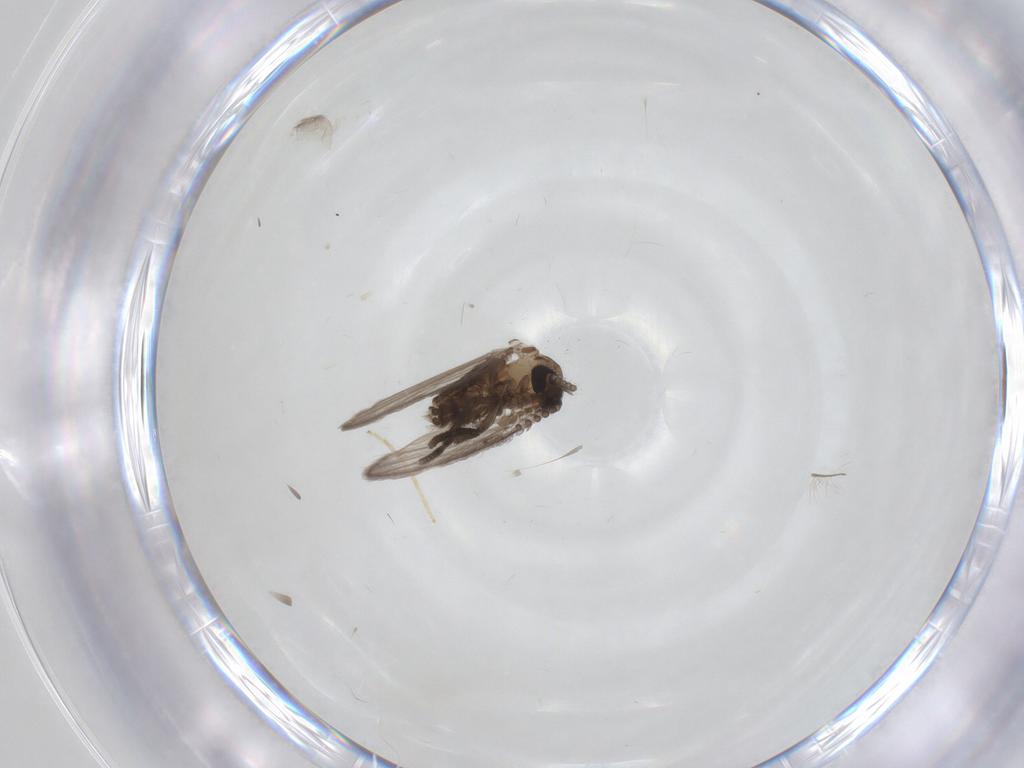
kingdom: Animalia
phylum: Arthropoda
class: Insecta
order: Diptera
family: Chironomidae
